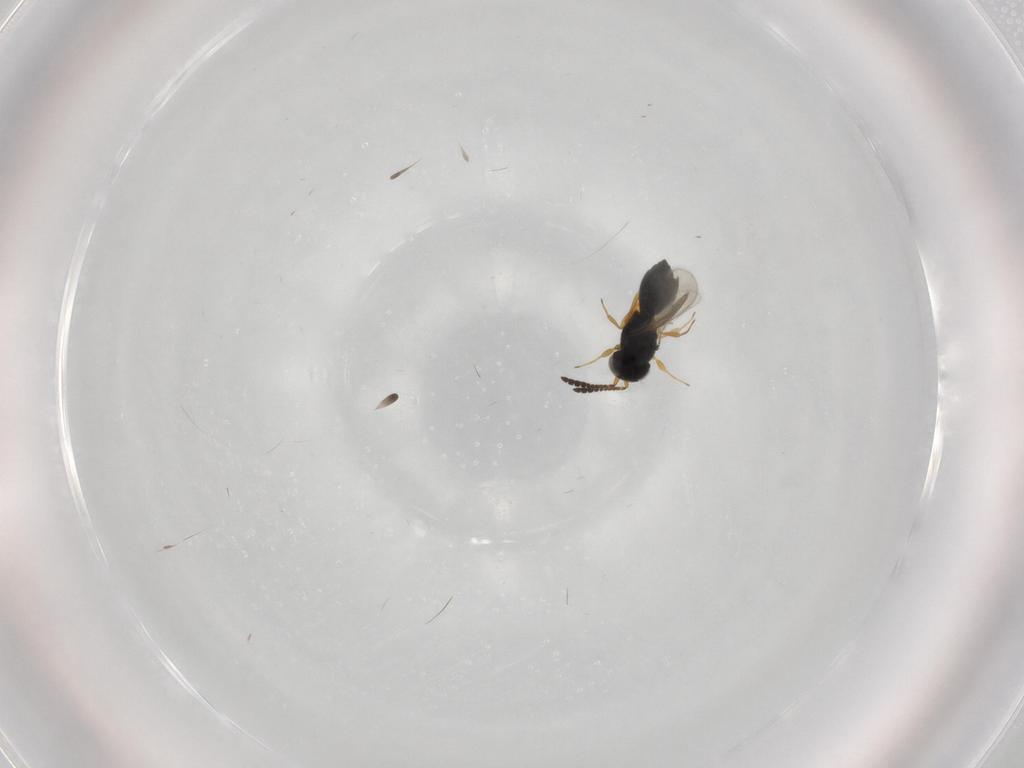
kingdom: Animalia
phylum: Arthropoda
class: Insecta
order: Hymenoptera
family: Scelionidae
